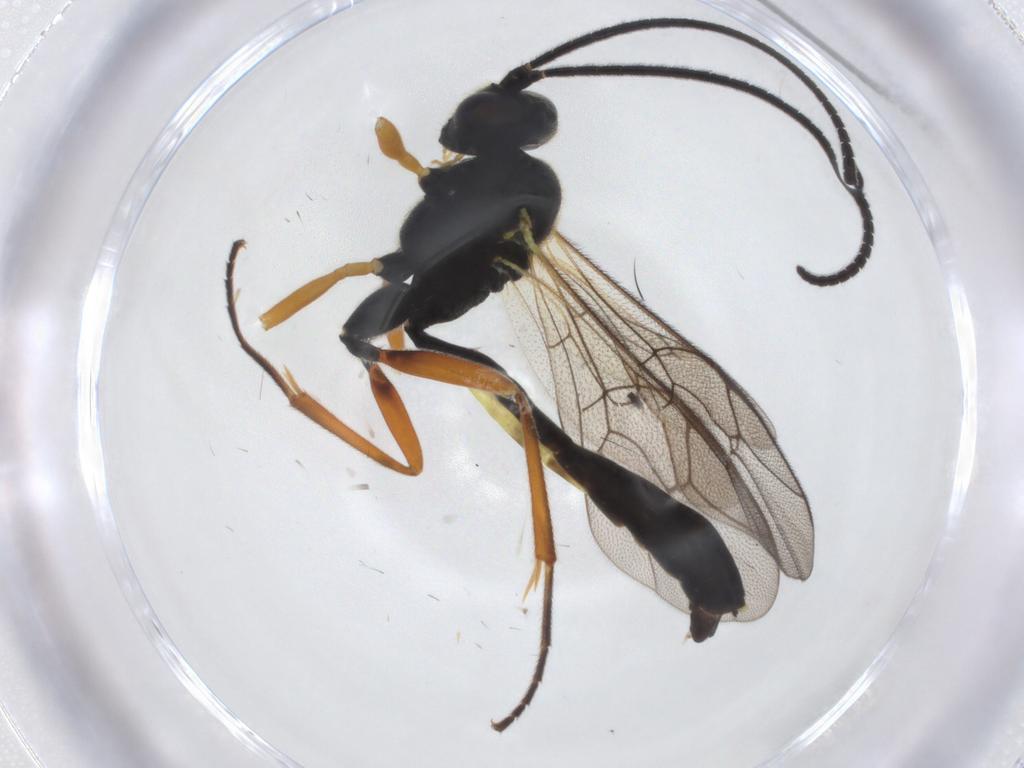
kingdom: Animalia
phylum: Arthropoda
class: Insecta
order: Hymenoptera
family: Ichneumonidae
